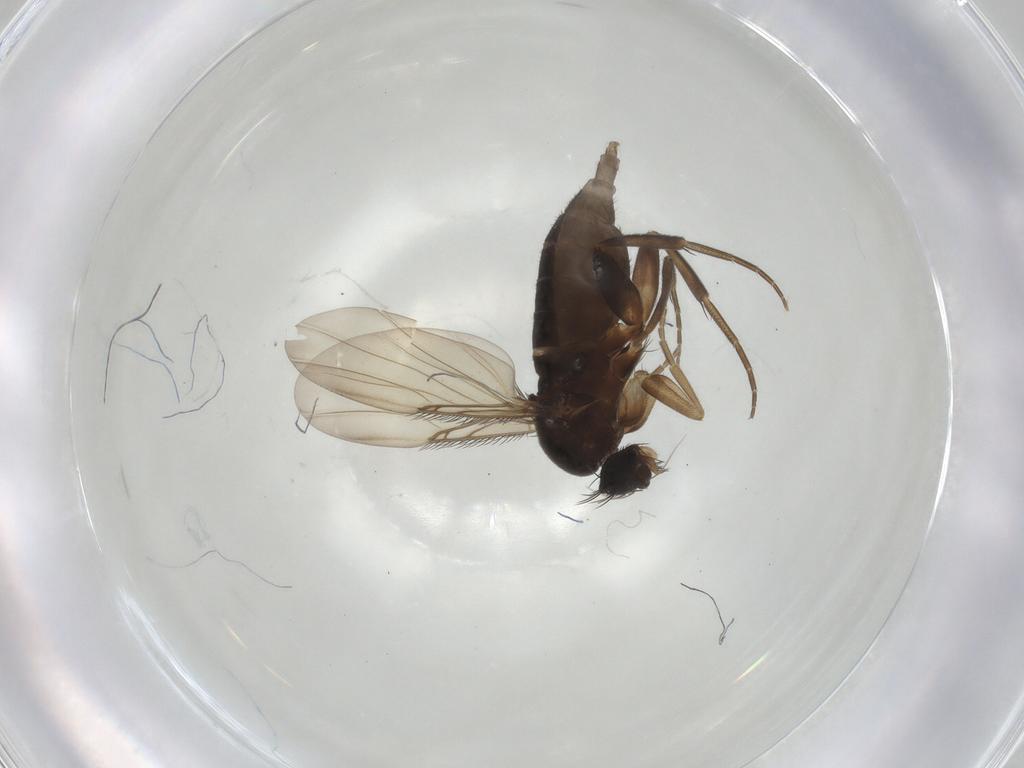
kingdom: Animalia
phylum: Arthropoda
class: Insecta
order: Diptera
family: Phoridae
